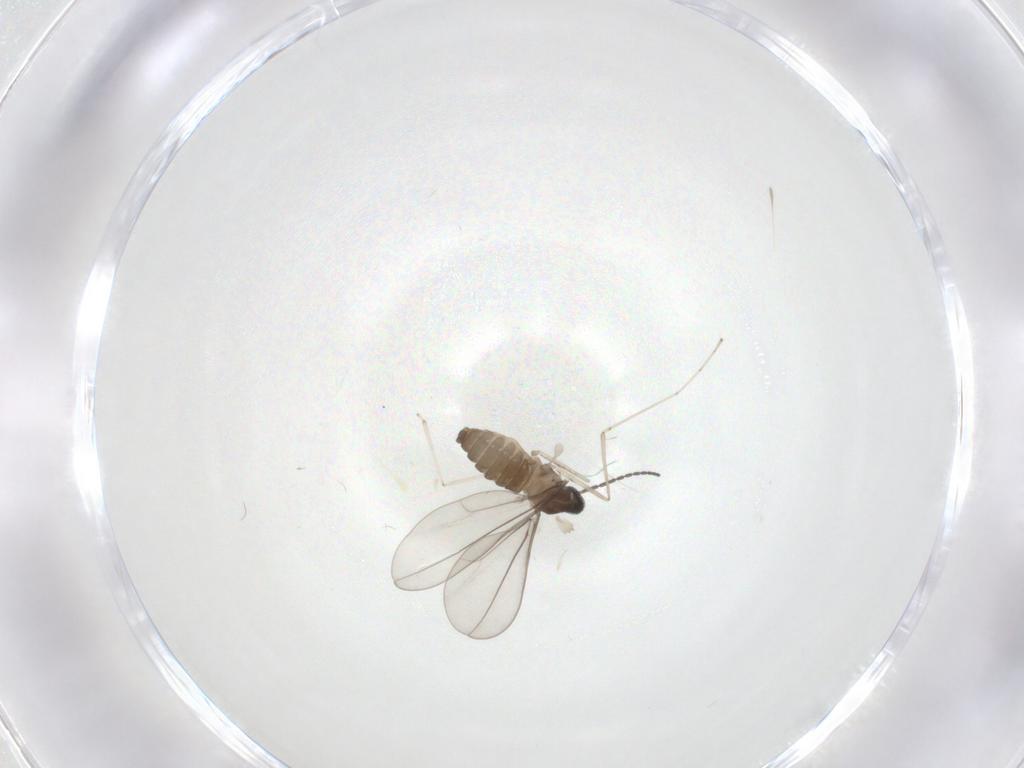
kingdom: Animalia
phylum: Arthropoda
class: Insecta
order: Diptera
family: Chironomidae
